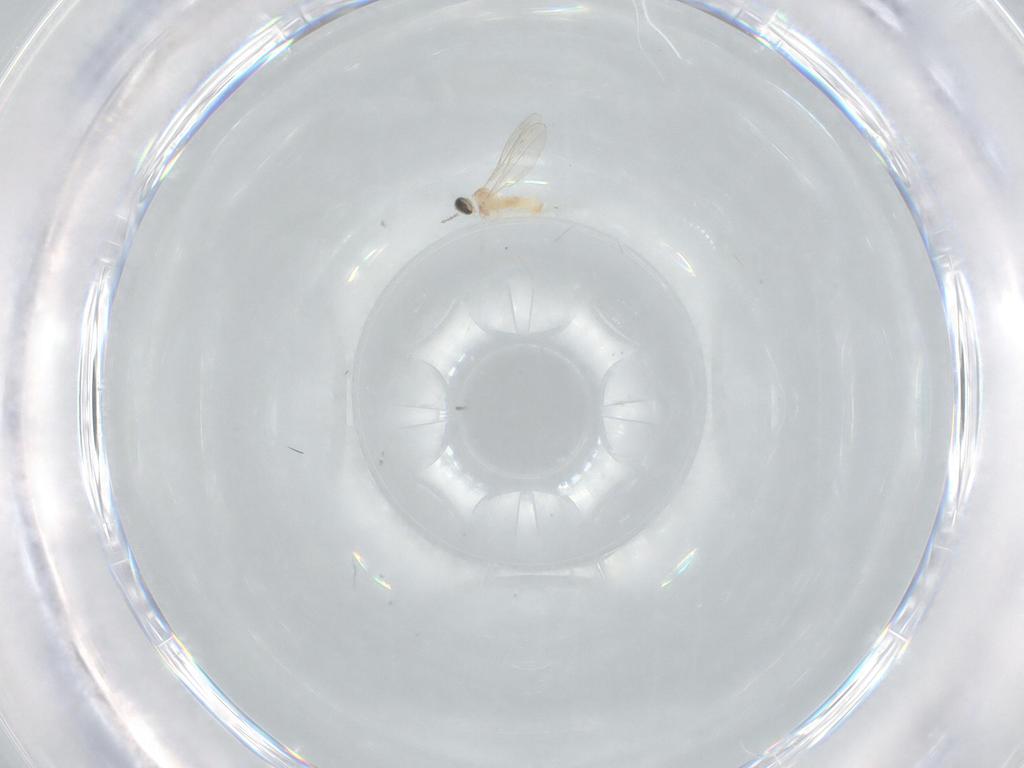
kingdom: Animalia
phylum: Arthropoda
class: Insecta
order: Diptera
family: Cecidomyiidae
